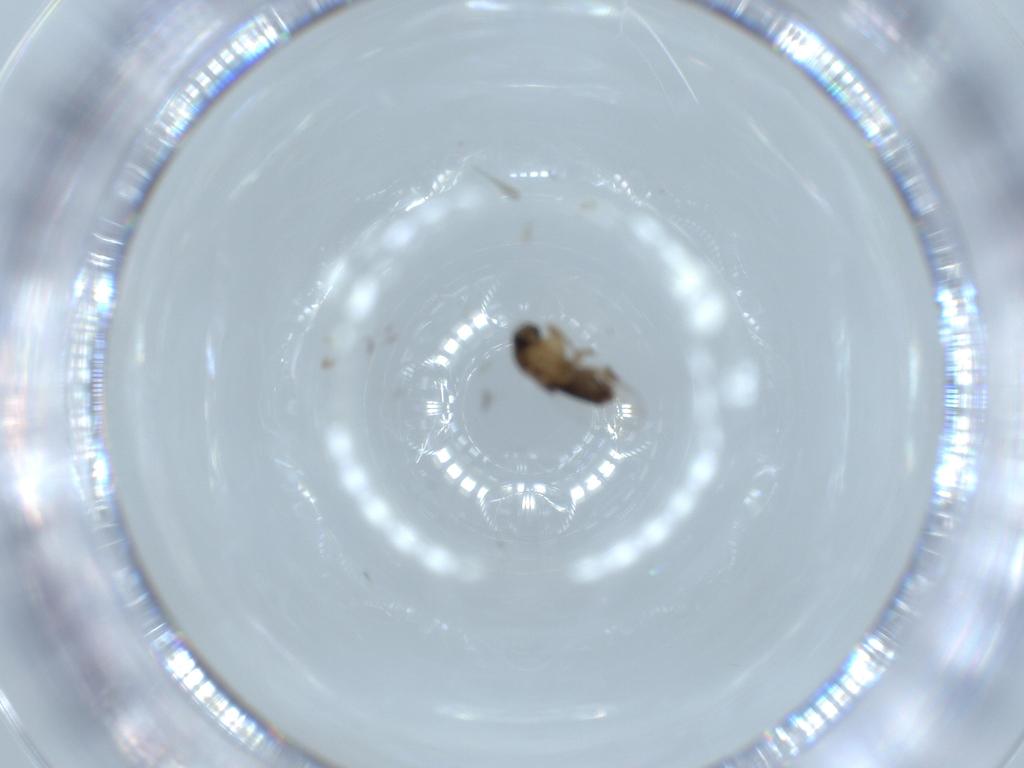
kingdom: Animalia
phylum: Arthropoda
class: Insecta
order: Diptera
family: Phoridae
